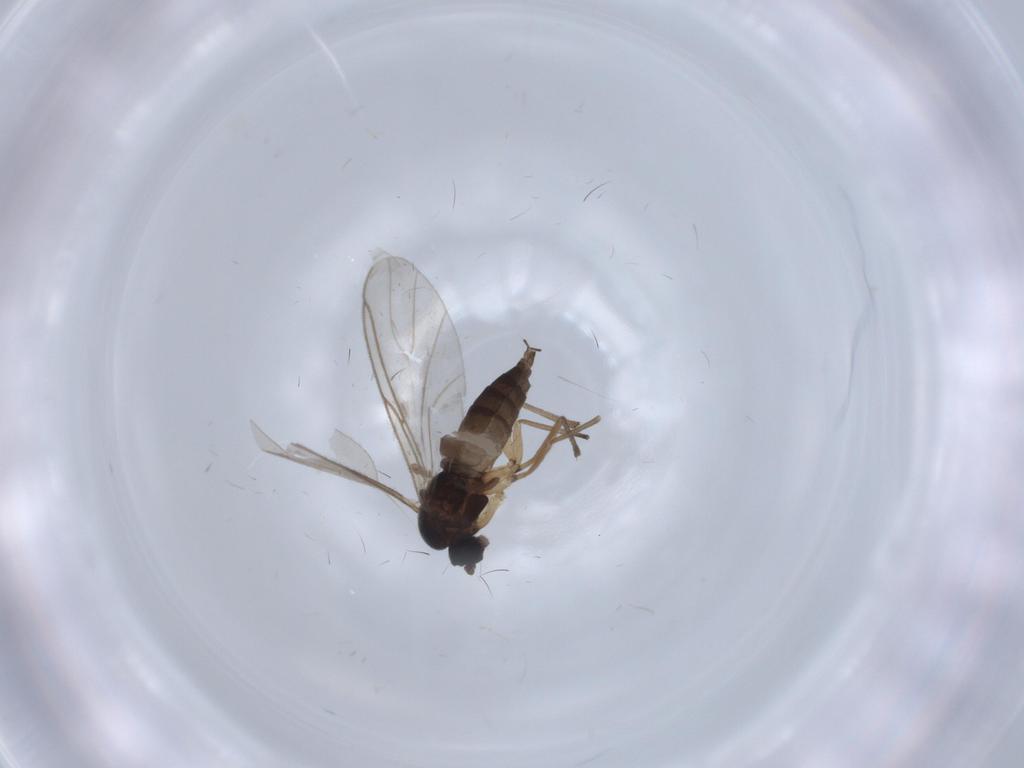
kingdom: Animalia
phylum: Arthropoda
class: Insecta
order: Diptera
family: Sciaridae
